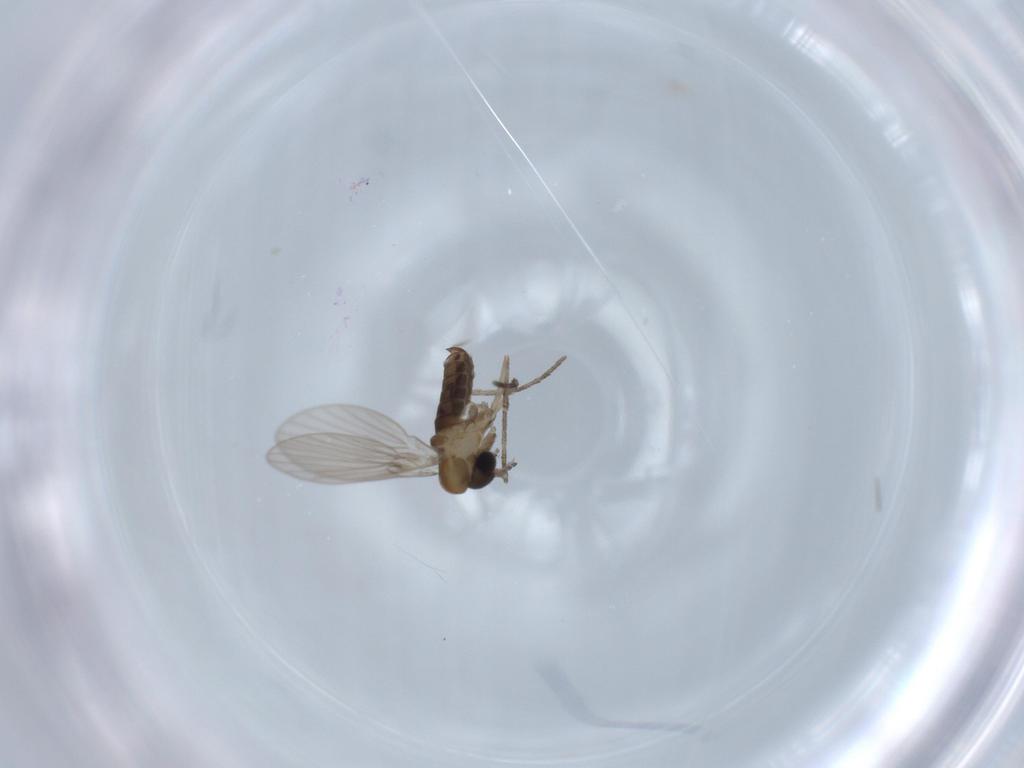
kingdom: Animalia
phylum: Arthropoda
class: Insecta
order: Diptera
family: Psychodidae
